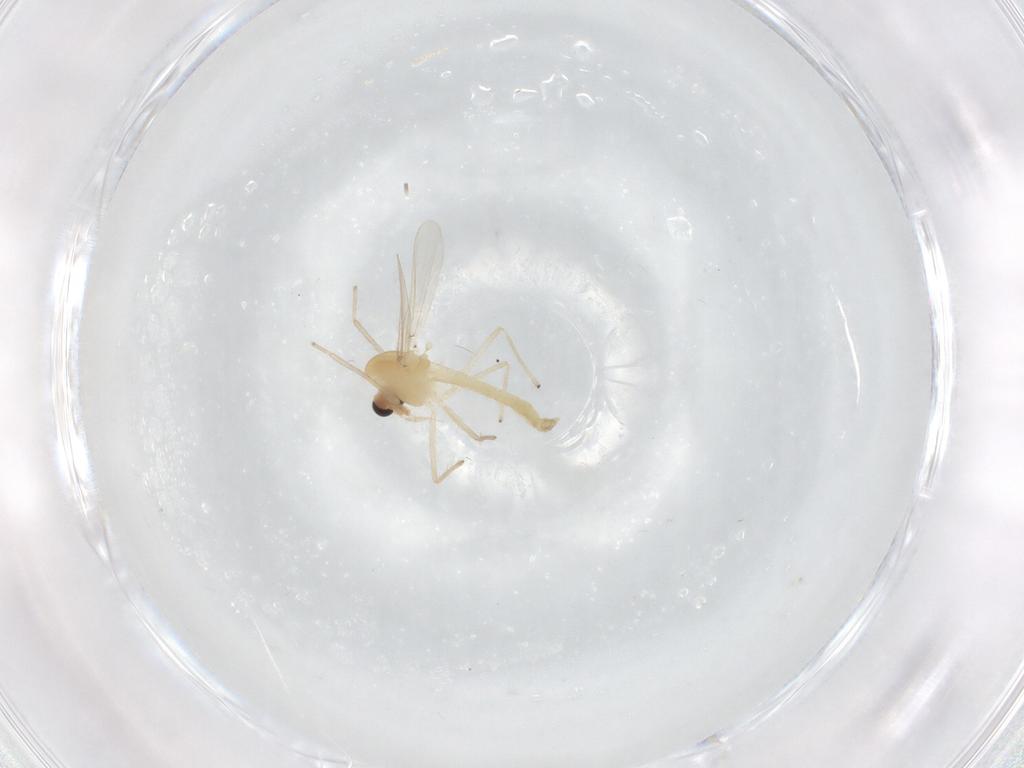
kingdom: Animalia
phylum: Arthropoda
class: Insecta
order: Diptera
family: Chironomidae
